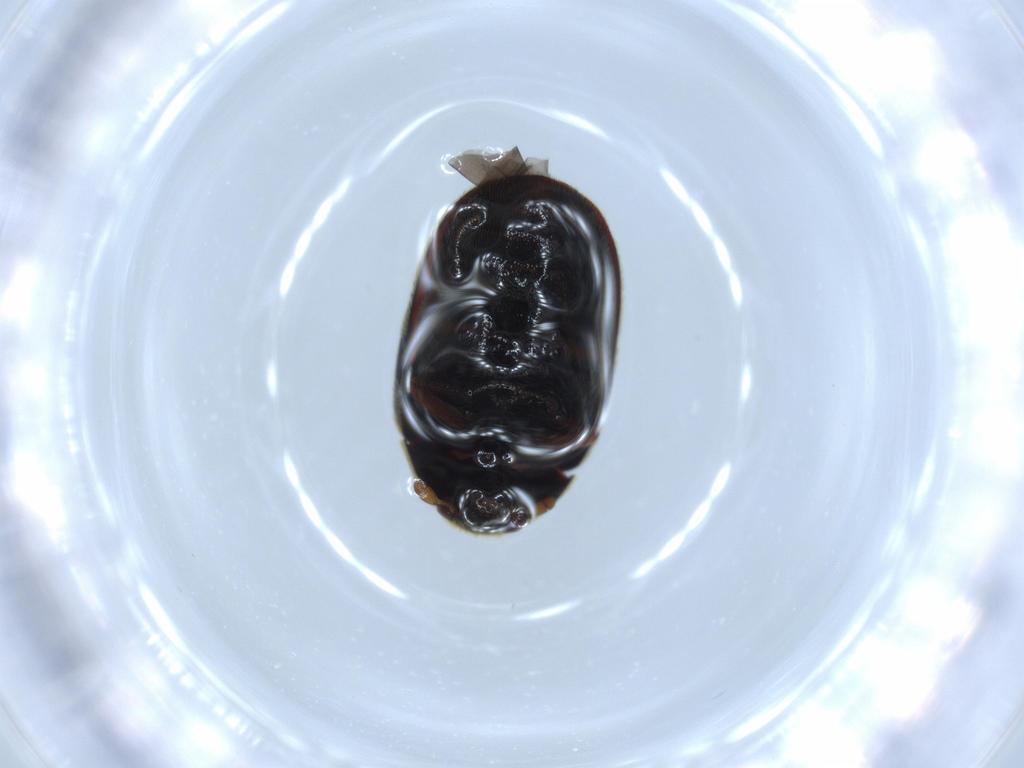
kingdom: Animalia
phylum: Arthropoda
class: Insecta
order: Coleoptera
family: Dermestidae
